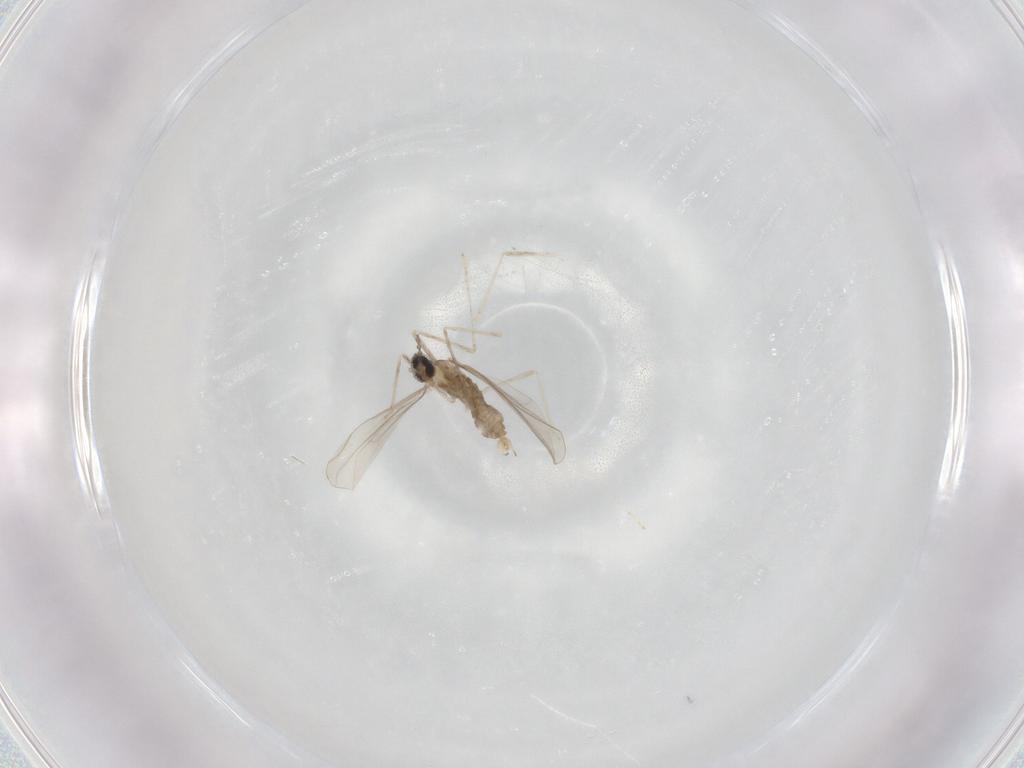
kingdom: Animalia
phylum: Arthropoda
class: Insecta
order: Diptera
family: Cecidomyiidae
